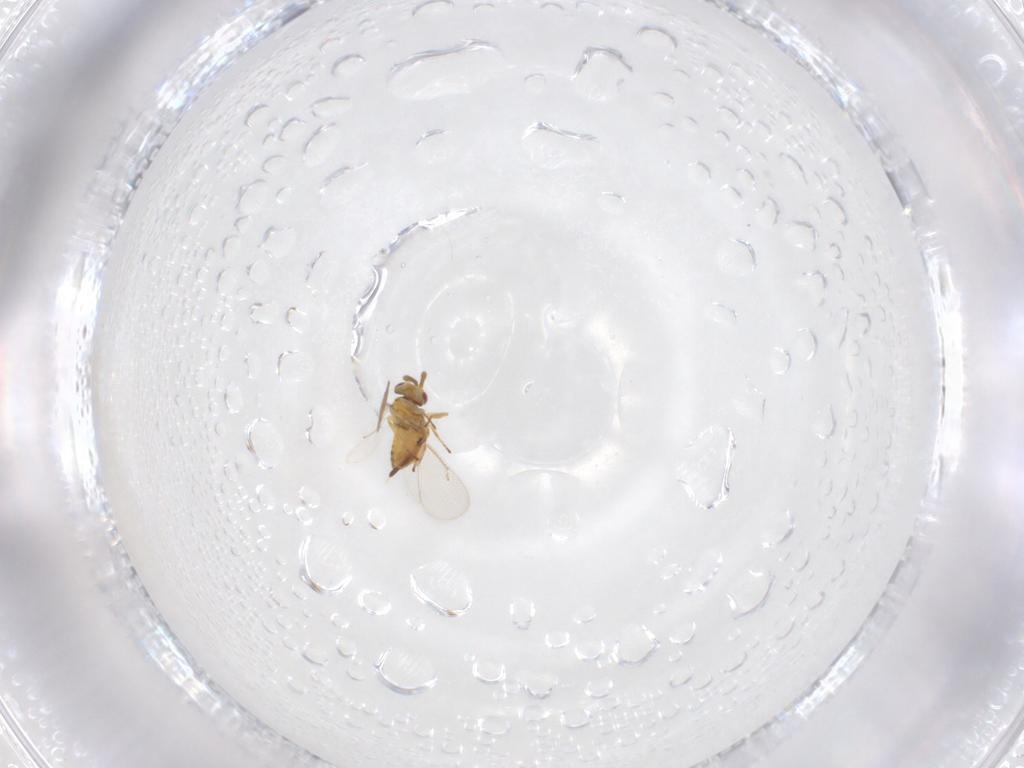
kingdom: Animalia
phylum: Arthropoda
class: Insecta
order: Hymenoptera
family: Eulophidae
